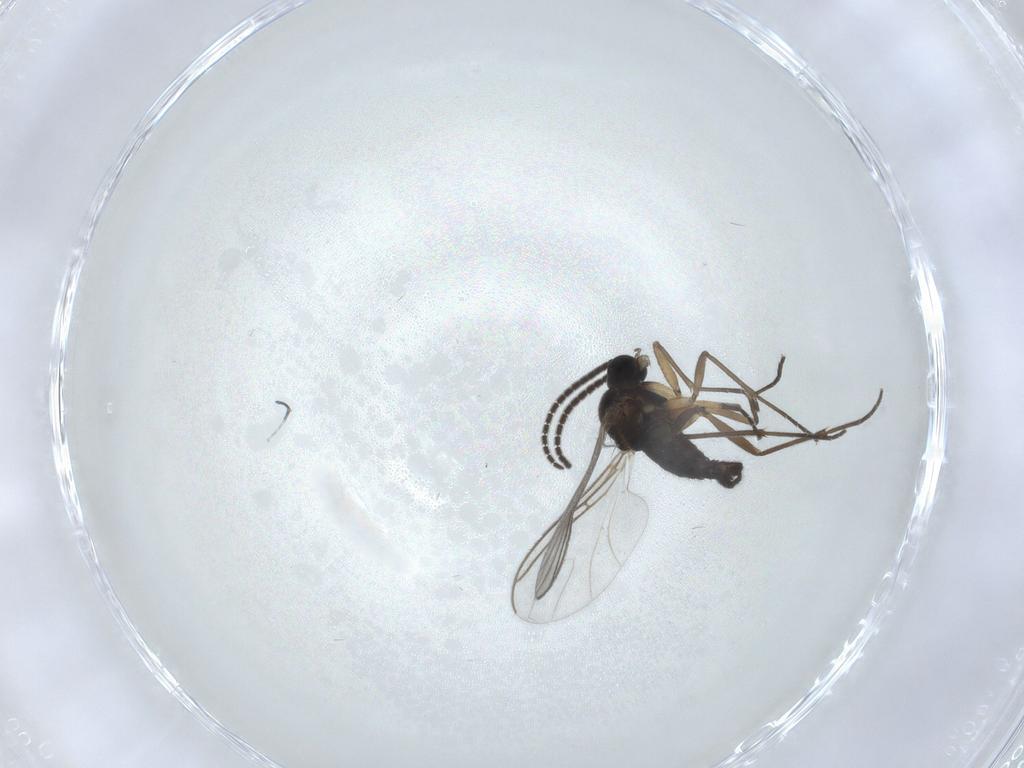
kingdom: Animalia
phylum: Arthropoda
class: Insecta
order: Diptera
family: Sciaridae
